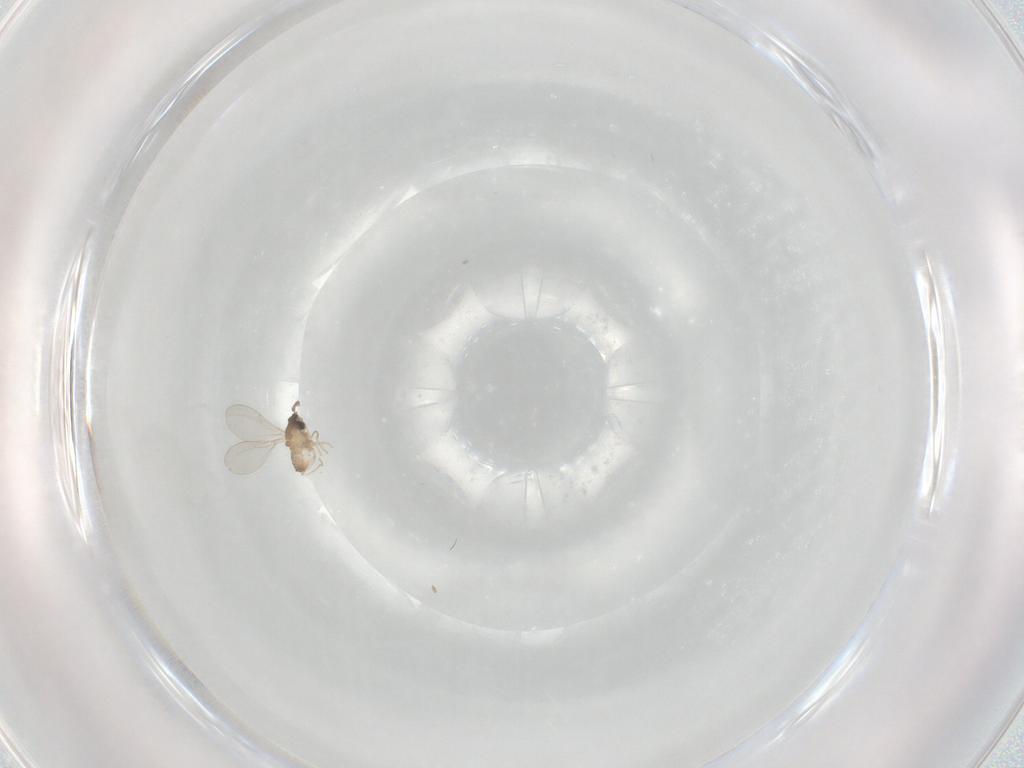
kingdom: Animalia
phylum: Arthropoda
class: Insecta
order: Diptera
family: Cecidomyiidae
